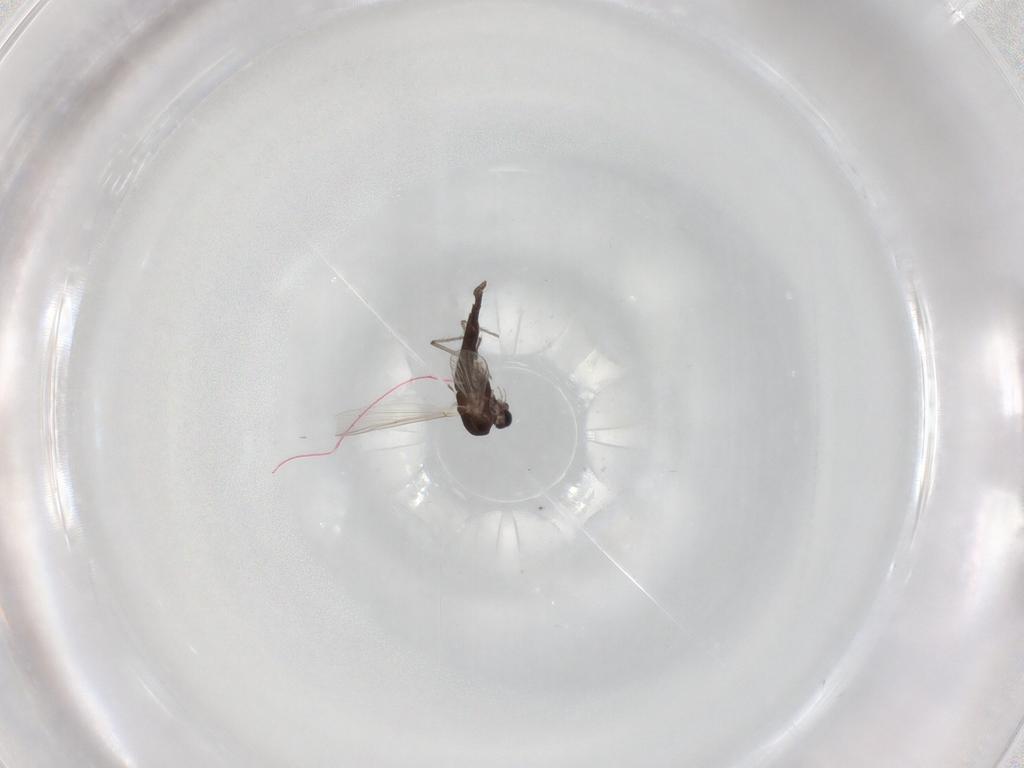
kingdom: Animalia
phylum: Arthropoda
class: Insecta
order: Diptera
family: Chironomidae
